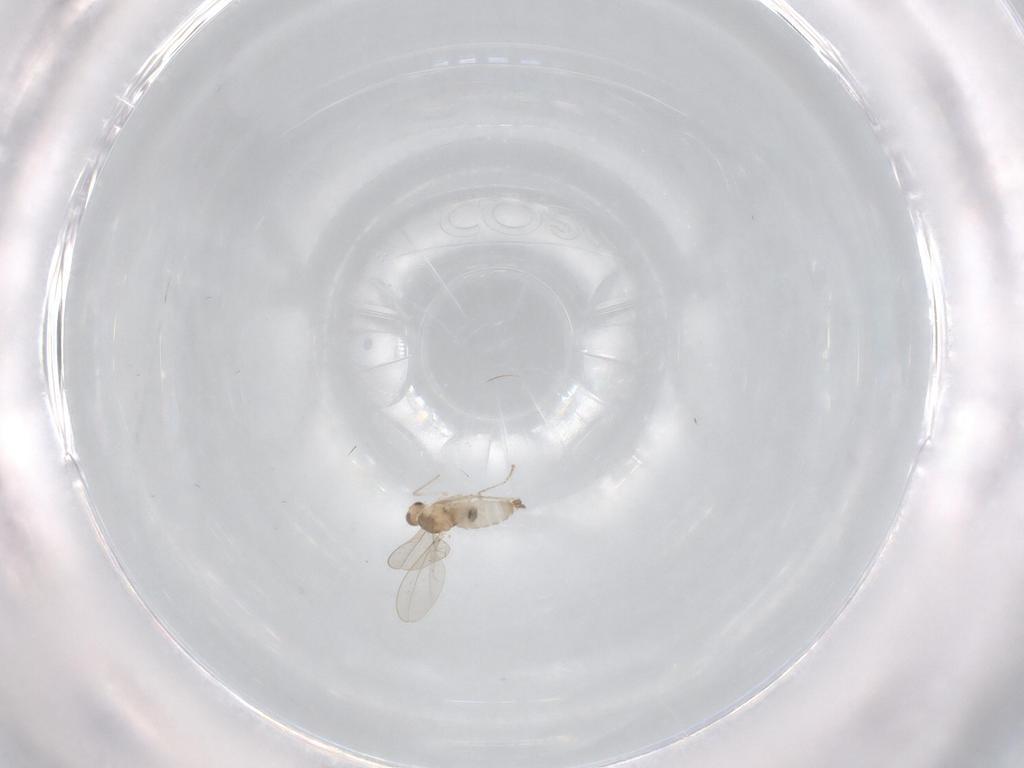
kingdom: Animalia
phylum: Arthropoda
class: Insecta
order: Diptera
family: Cecidomyiidae
